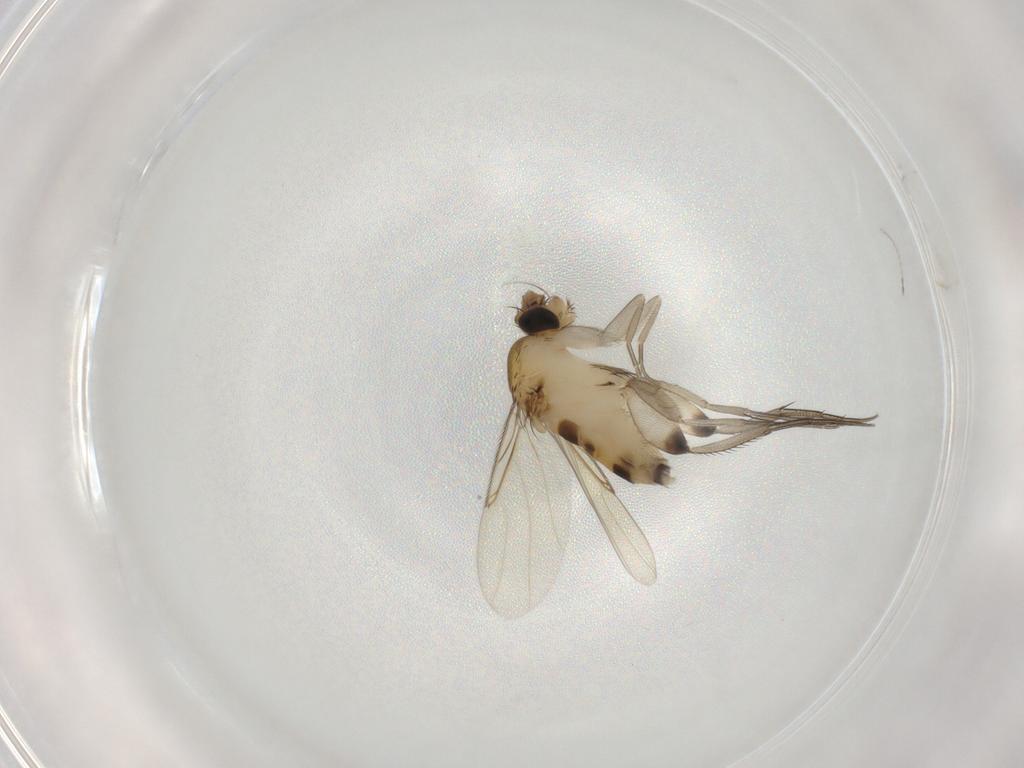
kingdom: Animalia
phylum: Arthropoda
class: Insecta
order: Diptera
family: Phoridae
